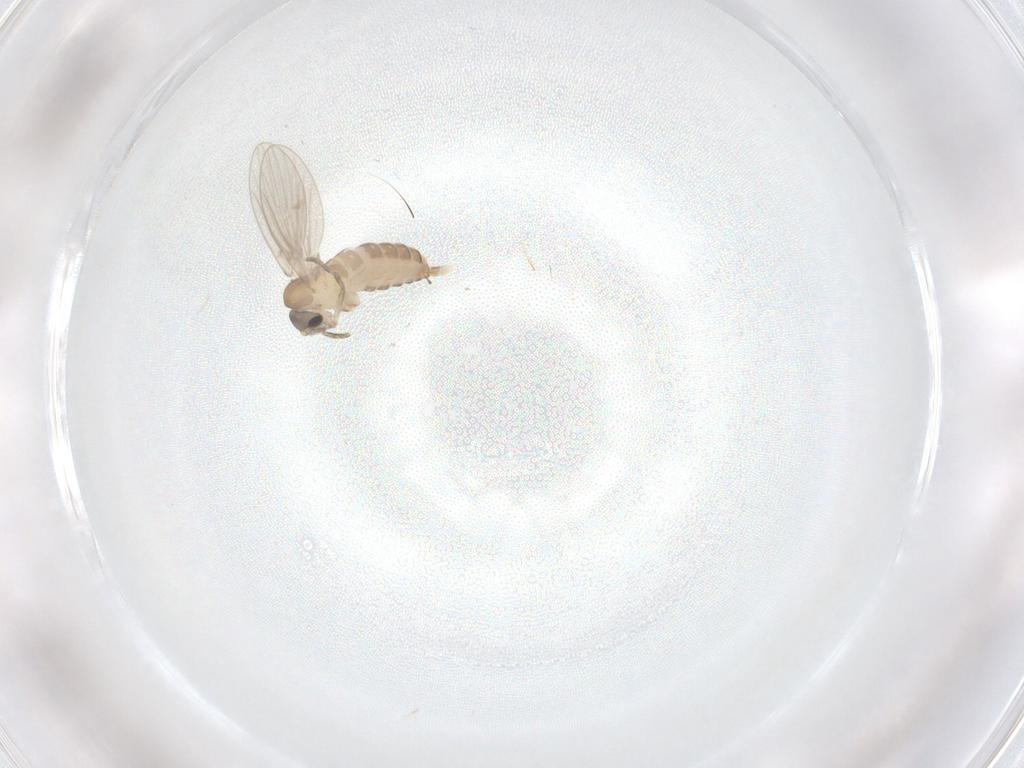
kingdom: Animalia
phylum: Arthropoda
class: Insecta
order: Diptera
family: Psychodidae
